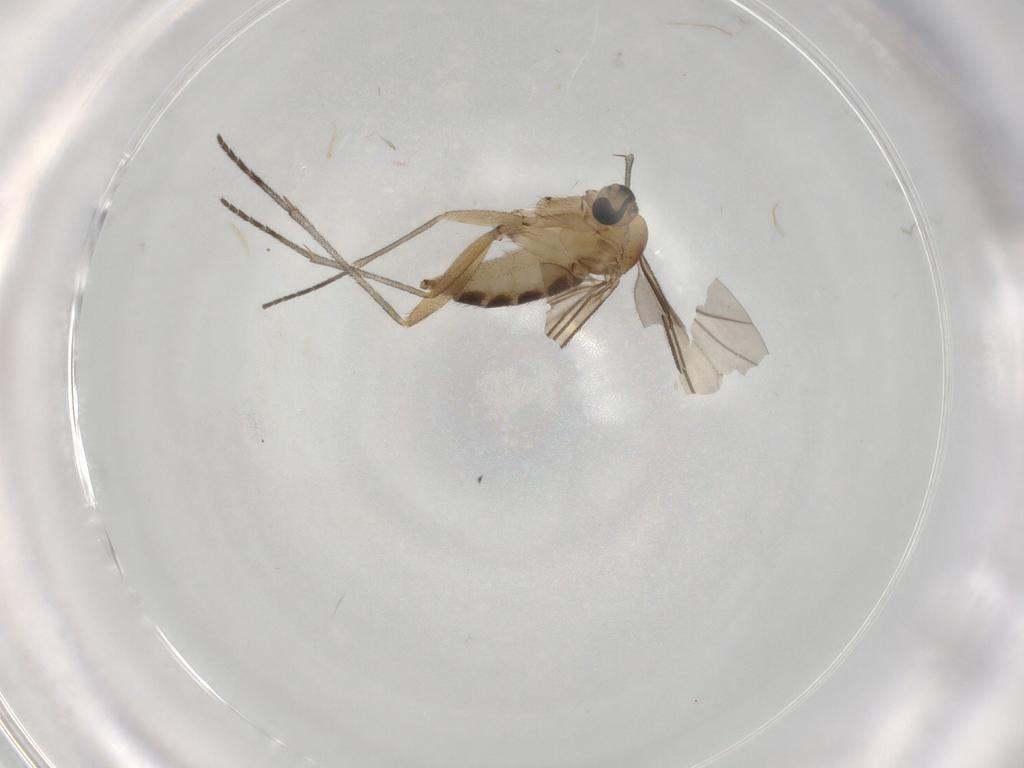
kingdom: Animalia
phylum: Arthropoda
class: Insecta
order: Diptera
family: Sciaridae
